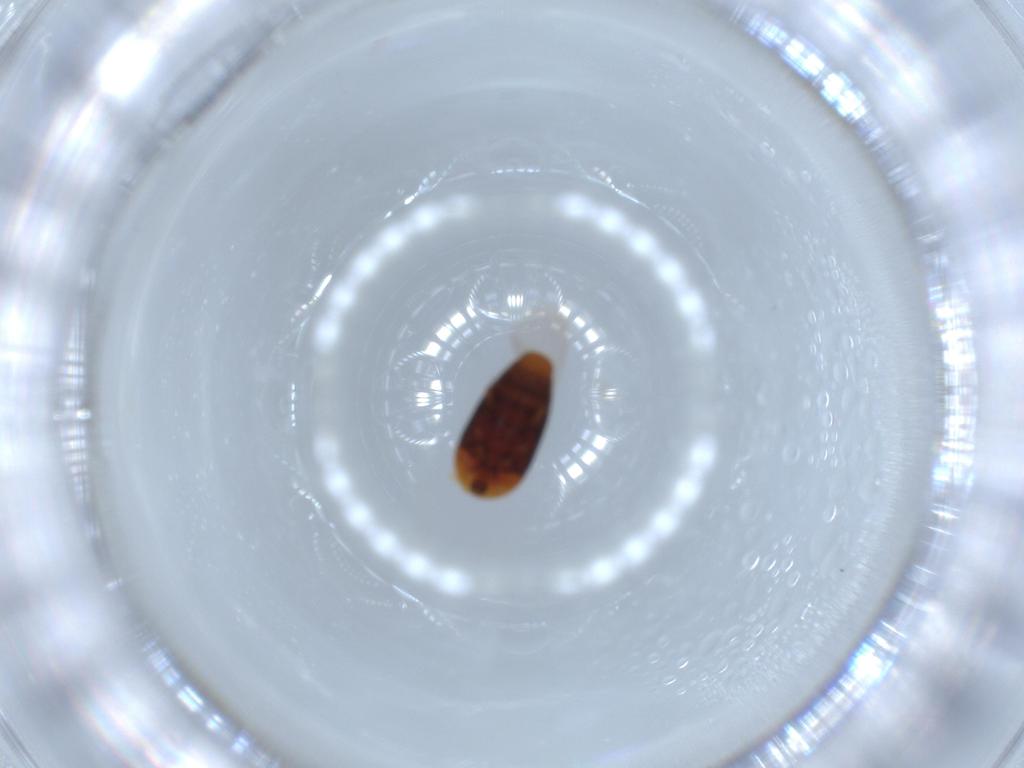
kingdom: Animalia
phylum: Arthropoda
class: Insecta
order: Coleoptera
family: Corylophidae
